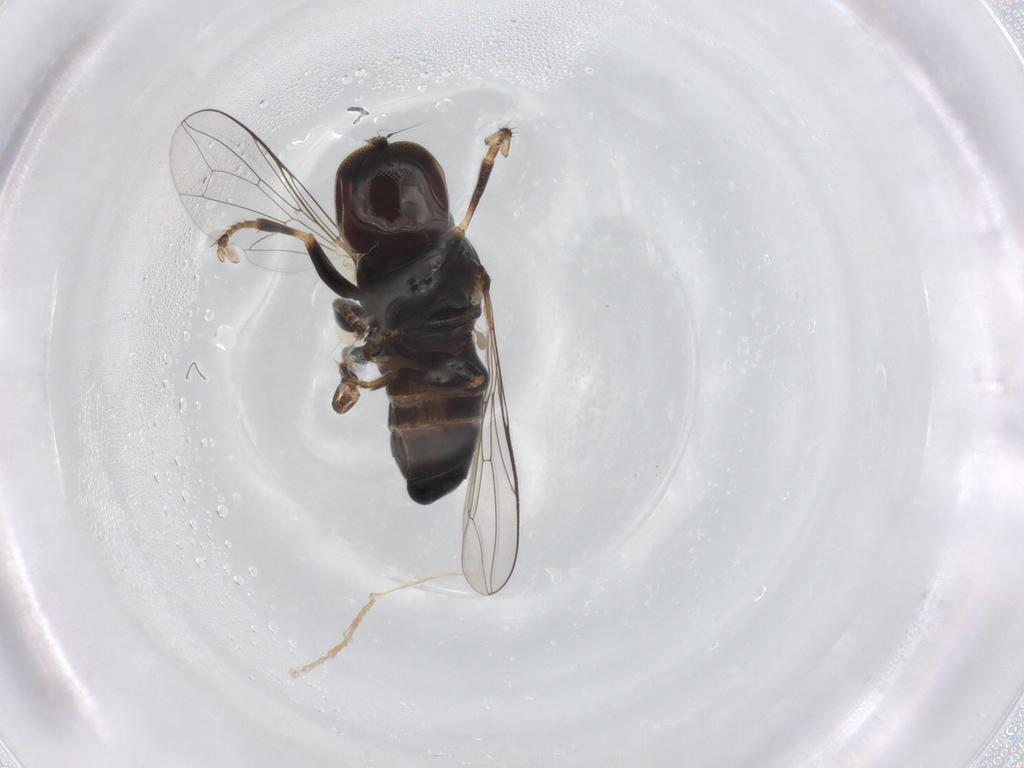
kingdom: Animalia
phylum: Arthropoda
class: Insecta
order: Diptera
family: Pipunculidae
